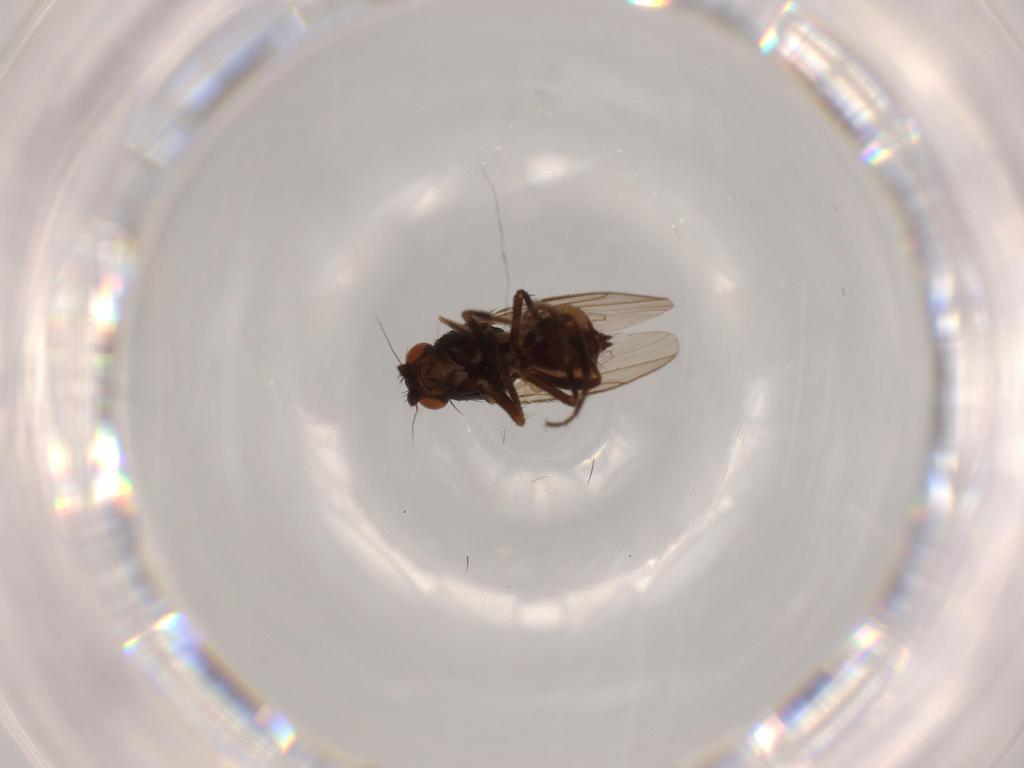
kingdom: Animalia
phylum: Arthropoda
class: Insecta
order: Diptera
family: Sphaeroceridae
